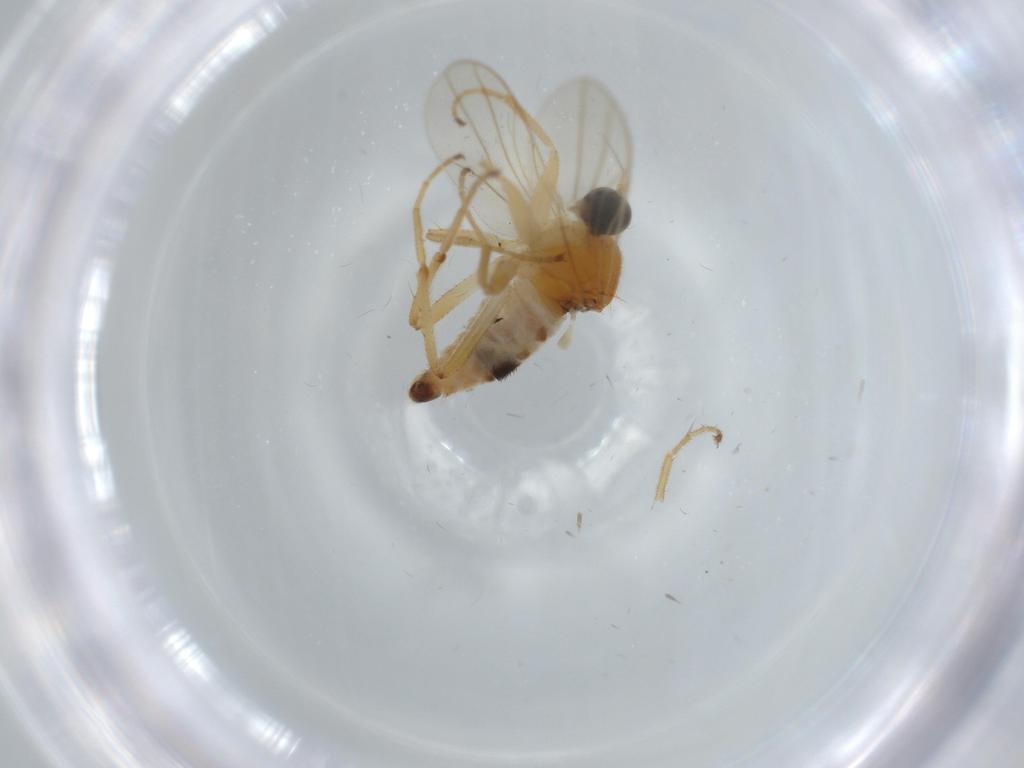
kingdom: Animalia
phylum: Arthropoda
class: Insecta
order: Diptera
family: Hybotidae
